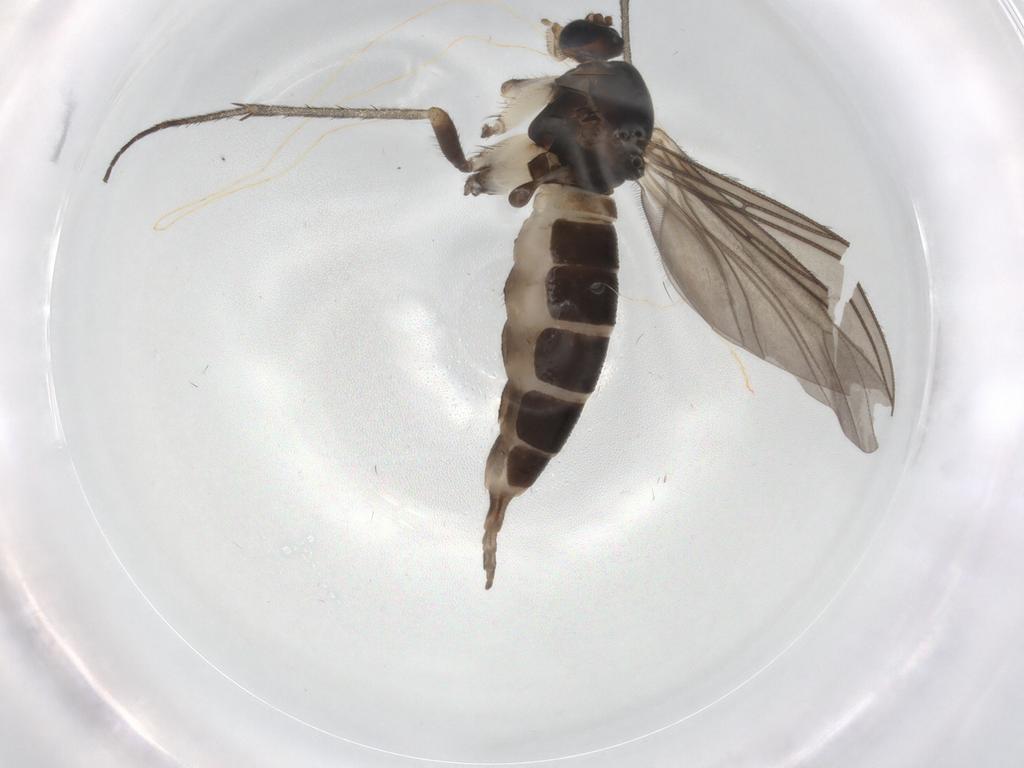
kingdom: Animalia
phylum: Arthropoda
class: Insecta
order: Diptera
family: Sciaridae
